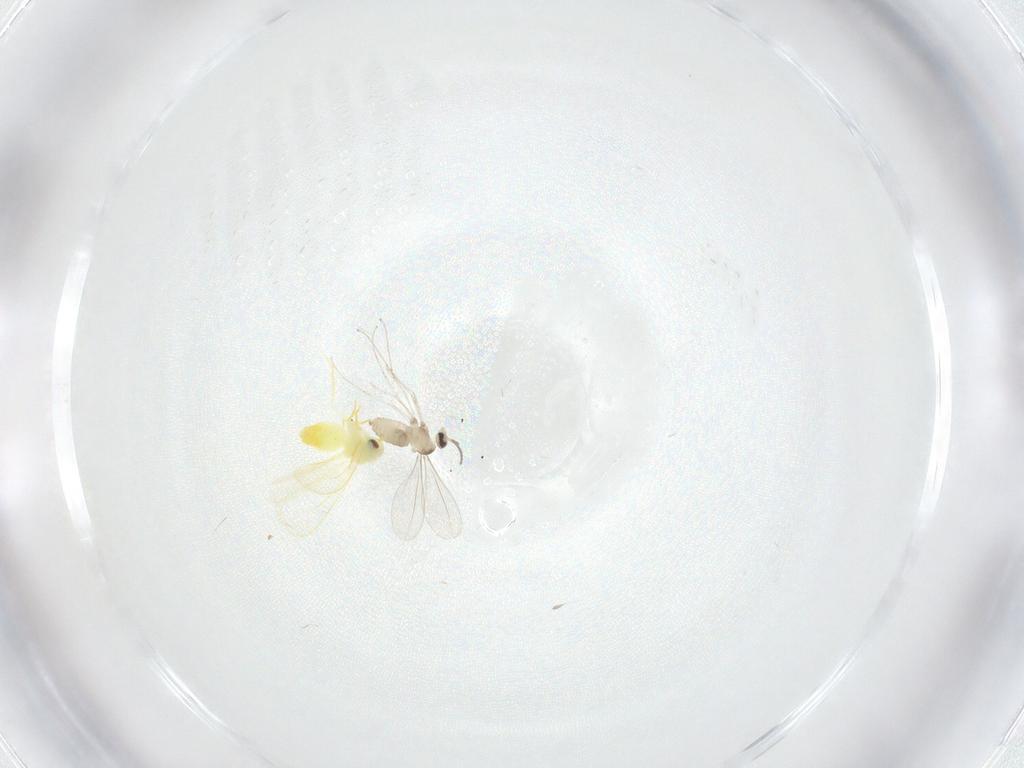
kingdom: Animalia
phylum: Arthropoda
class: Insecta
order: Diptera
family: Cecidomyiidae
